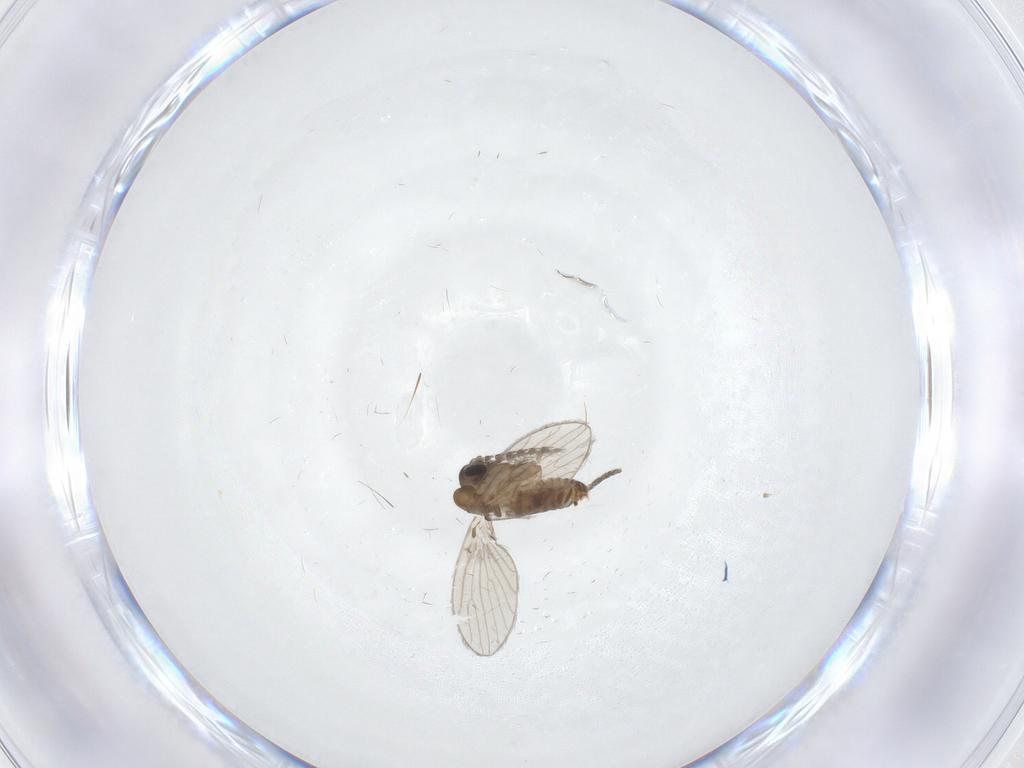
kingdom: Animalia
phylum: Arthropoda
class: Insecta
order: Diptera
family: Psychodidae
